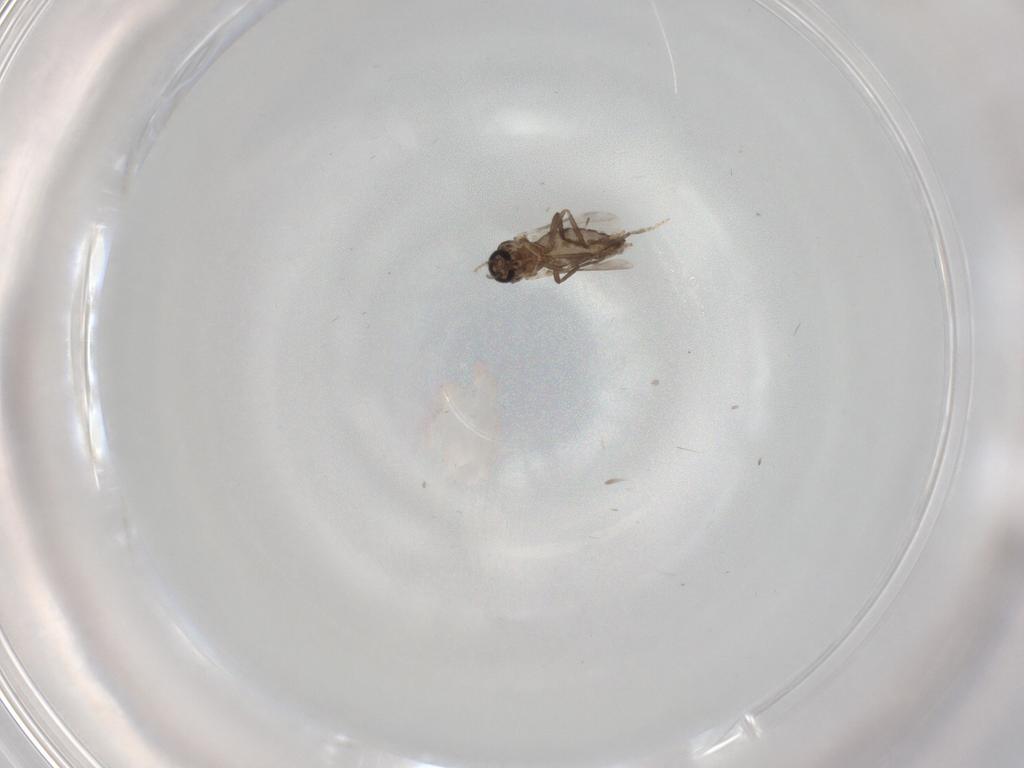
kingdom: Animalia
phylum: Arthropoda
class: Insecta
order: Diptera
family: Ceratopogonidae
